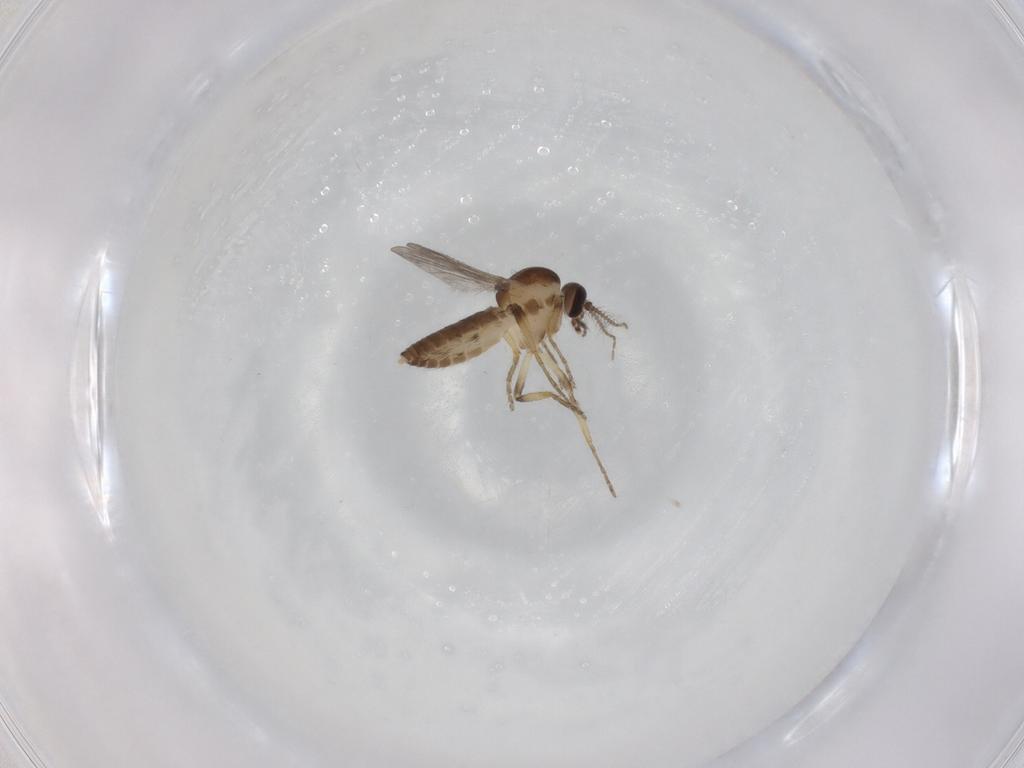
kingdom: Animalia
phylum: Arthropoda
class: Insecta
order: Diptera
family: Ceratopogonidae
